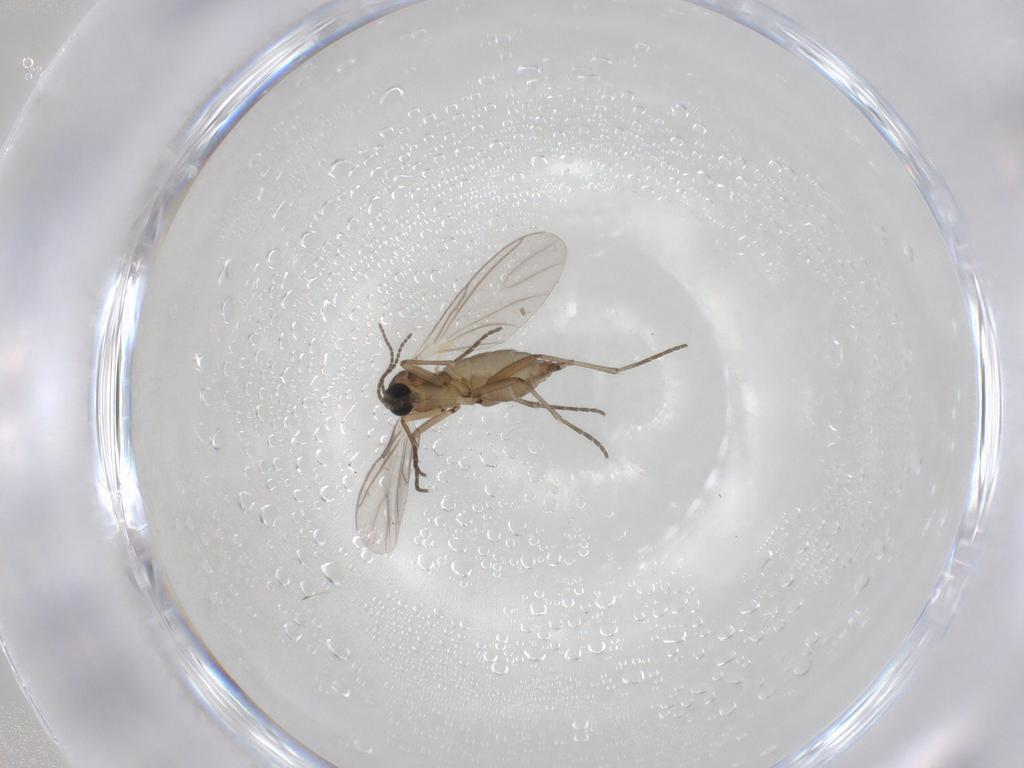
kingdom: Animalia
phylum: Arthropoda
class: Insecta
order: Diptera
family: Psychodidae
